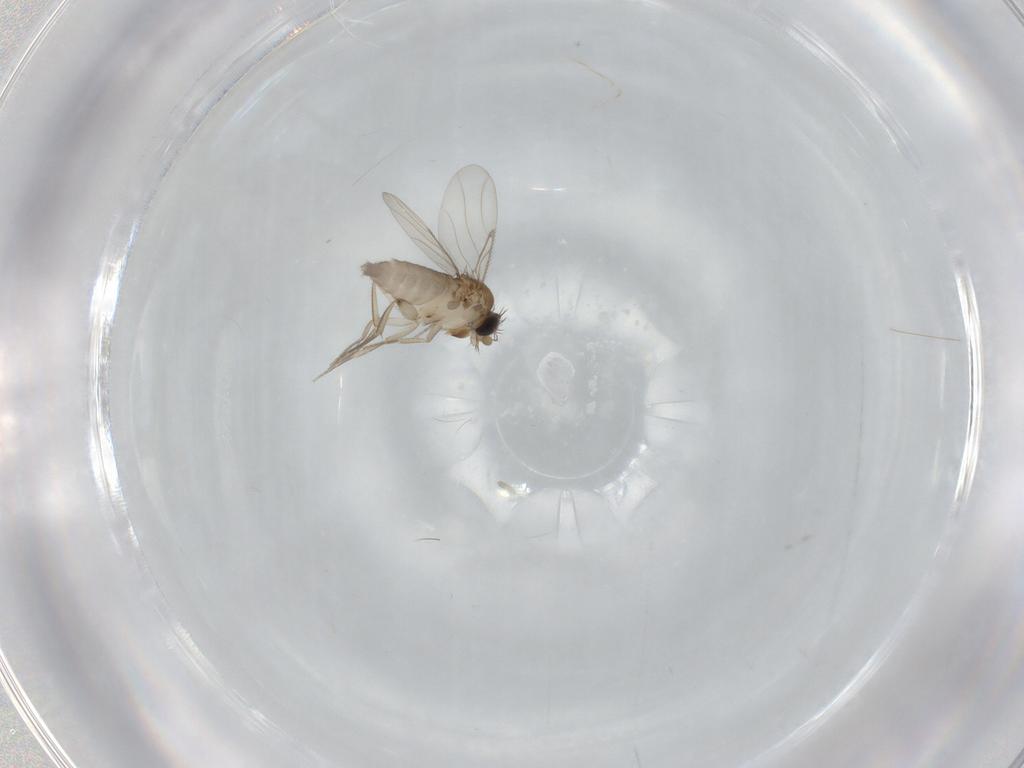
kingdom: Animalia
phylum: Arthropoda
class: Insecta
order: Diptera
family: Phoridae
